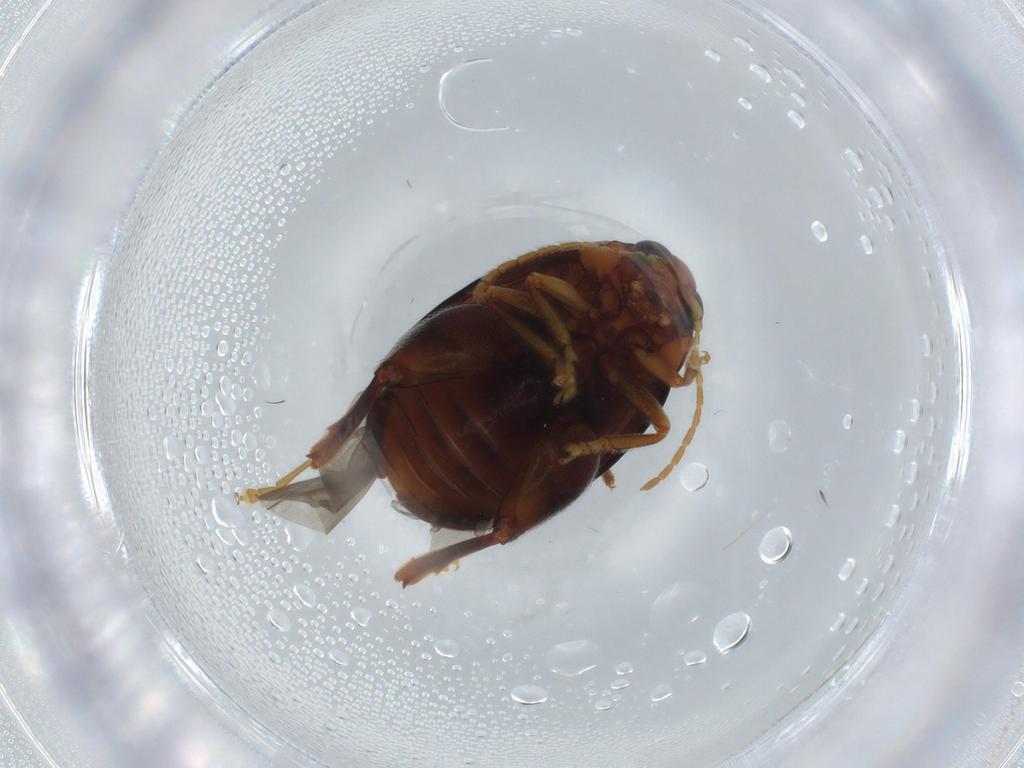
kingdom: Animalia
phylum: Arthropoda
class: Insecta
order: Coleoptera
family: Chrysomelidae
